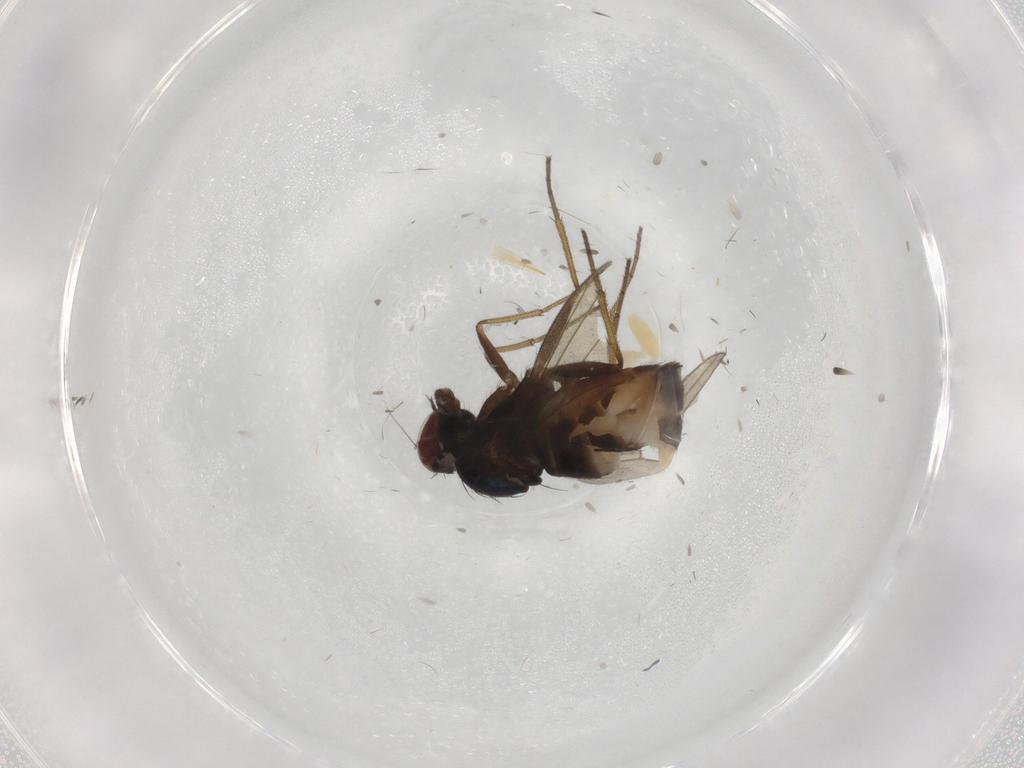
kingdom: Animalia
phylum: Arthropoda
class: Insecta
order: Diptera
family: Dolichopodidae
